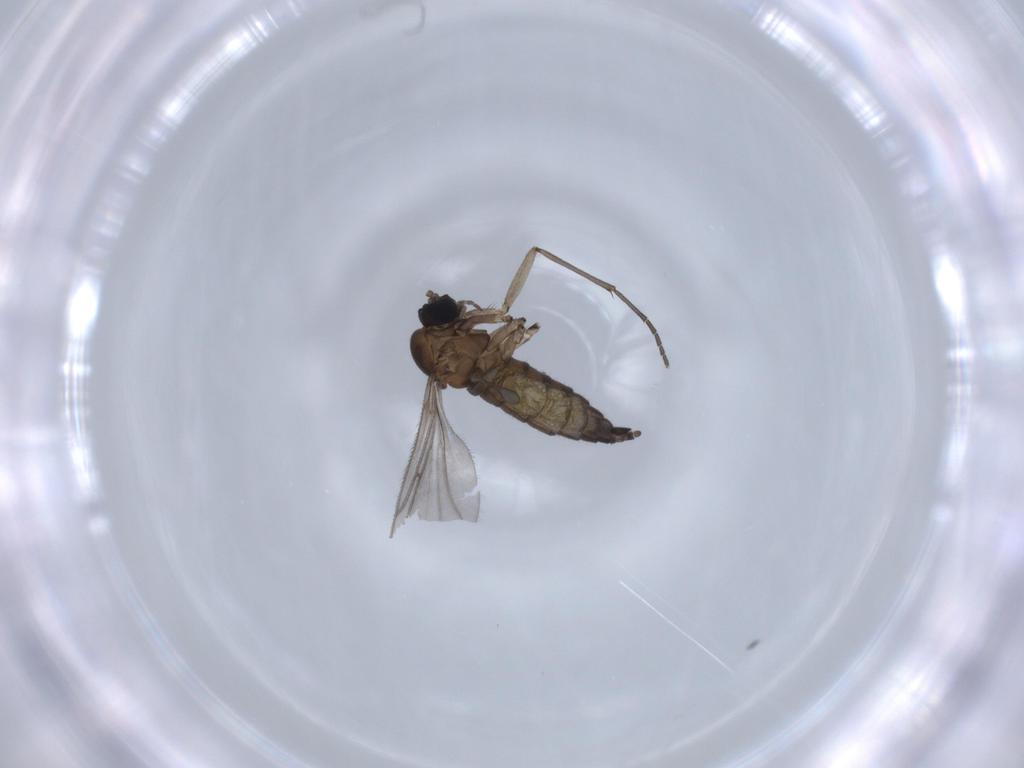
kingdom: Animalia
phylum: Arthropoda
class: Insecta
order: Diptera
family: Sciaridae
